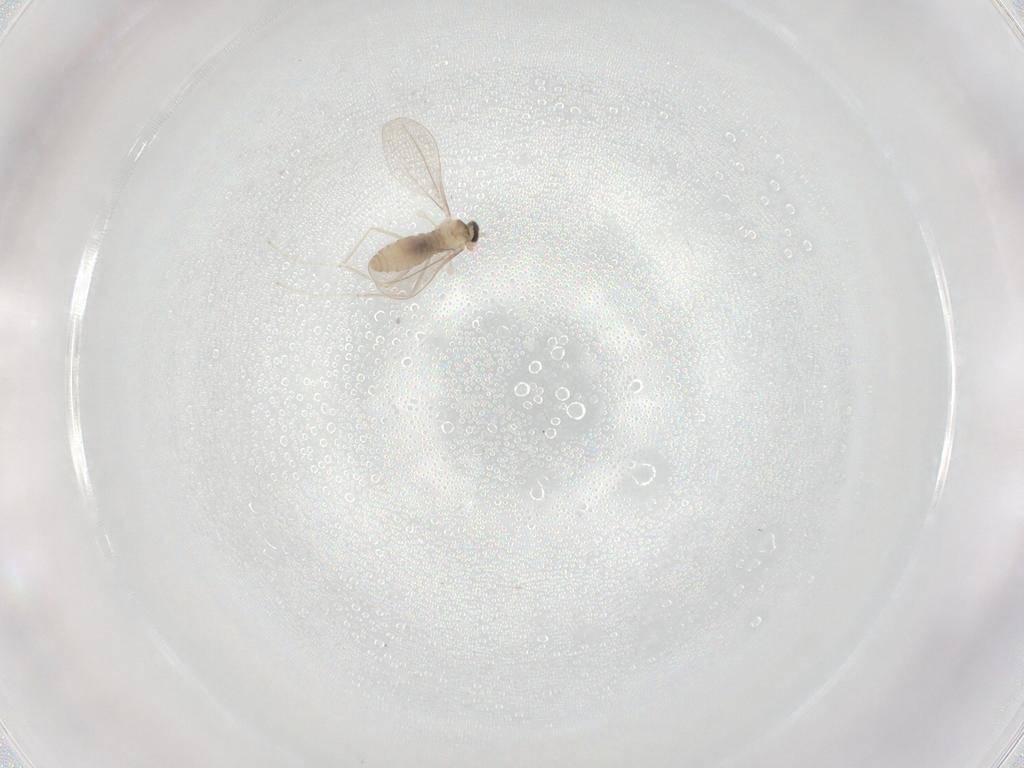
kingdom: Animalia
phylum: Arthropoda
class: Insecta
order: Diptera
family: Cecidomyiidae
